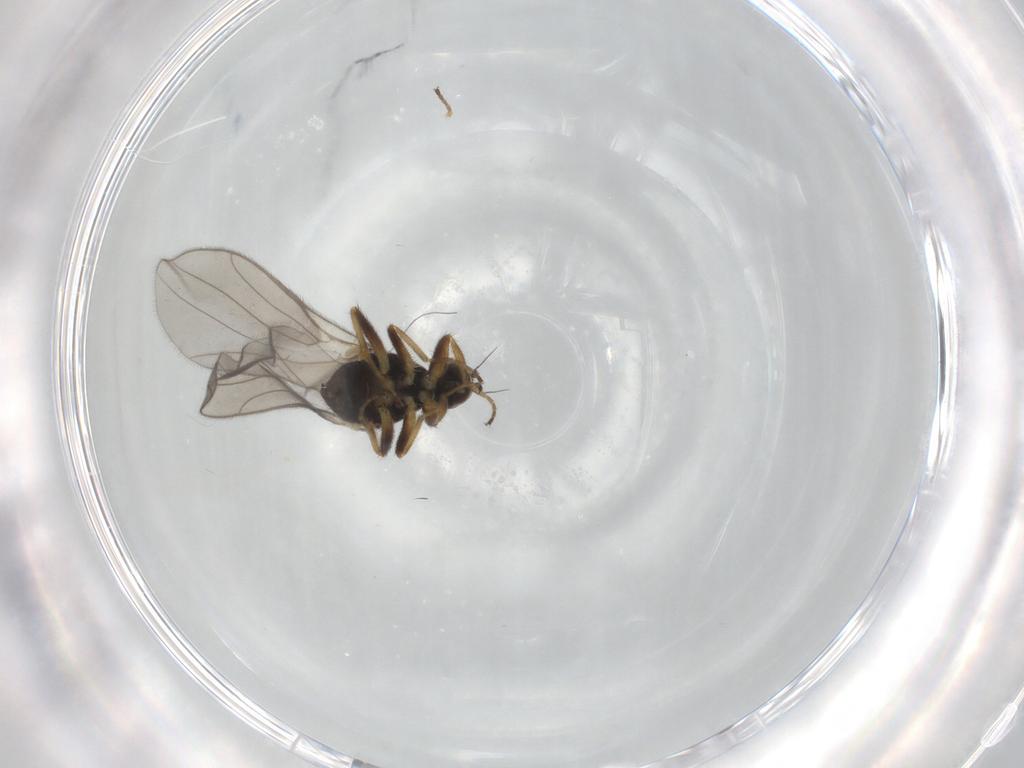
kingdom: Animalia
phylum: Arthropoda
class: Insecta
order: Diptera
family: Hybotidae
